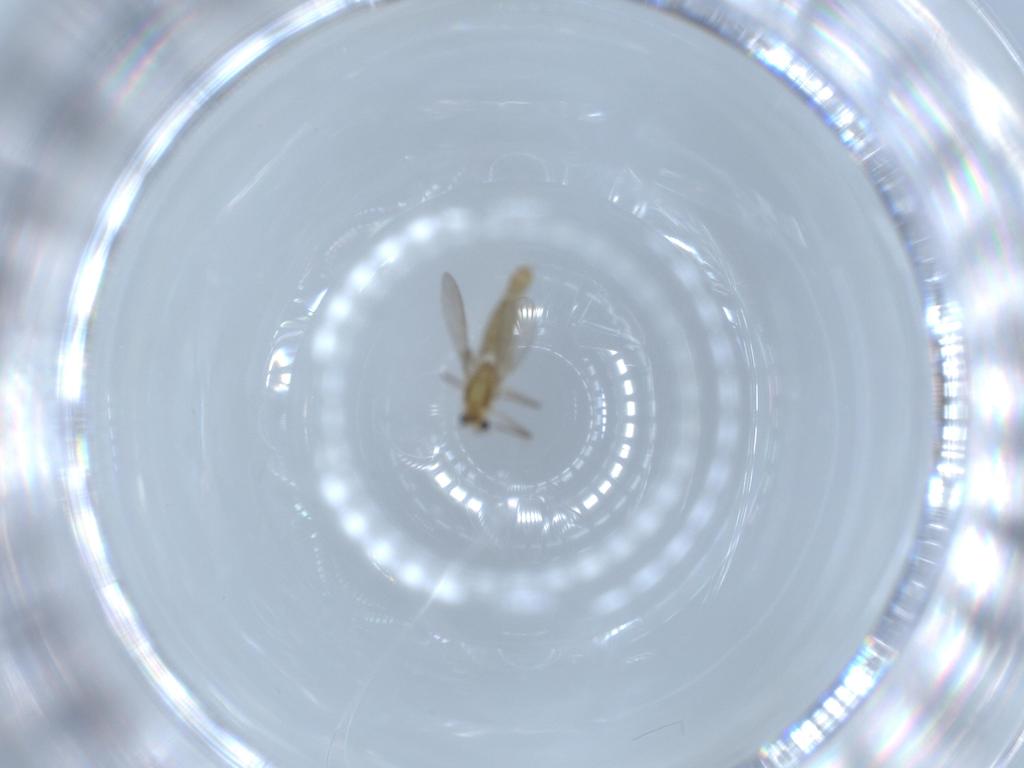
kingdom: Animalia
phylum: Arthropoda
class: Insecta
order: Diptera
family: Chironomidae
